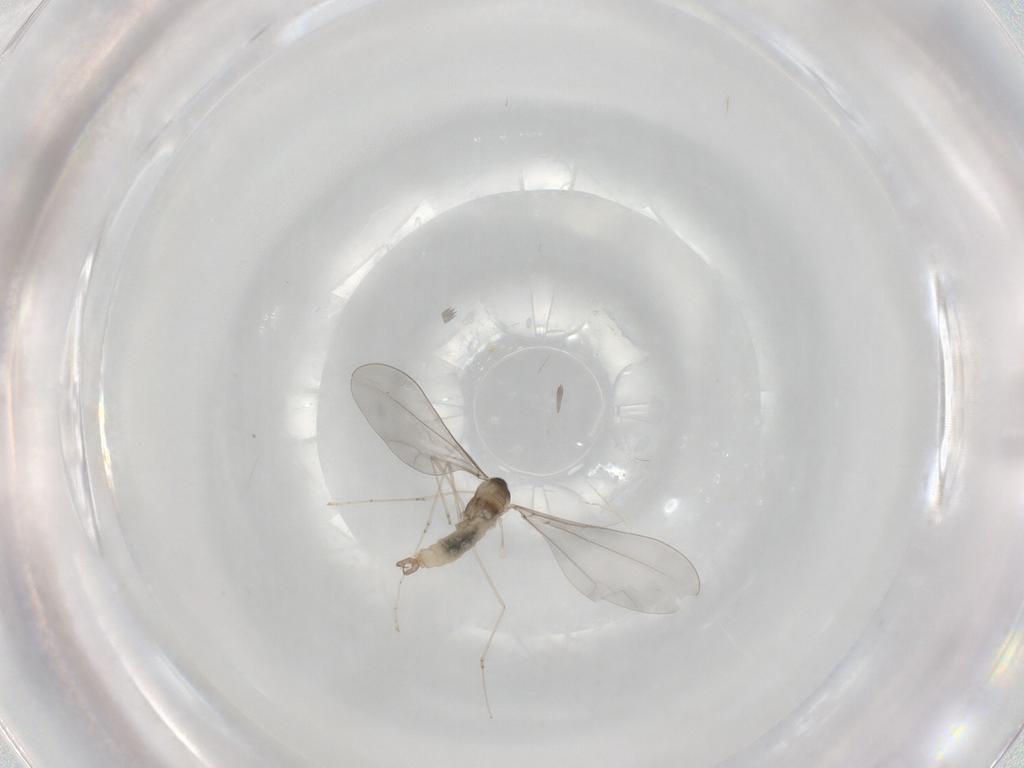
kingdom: Animalia
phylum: Arthropoda
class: Insecta
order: Diptera
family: Cecidomyiidae
